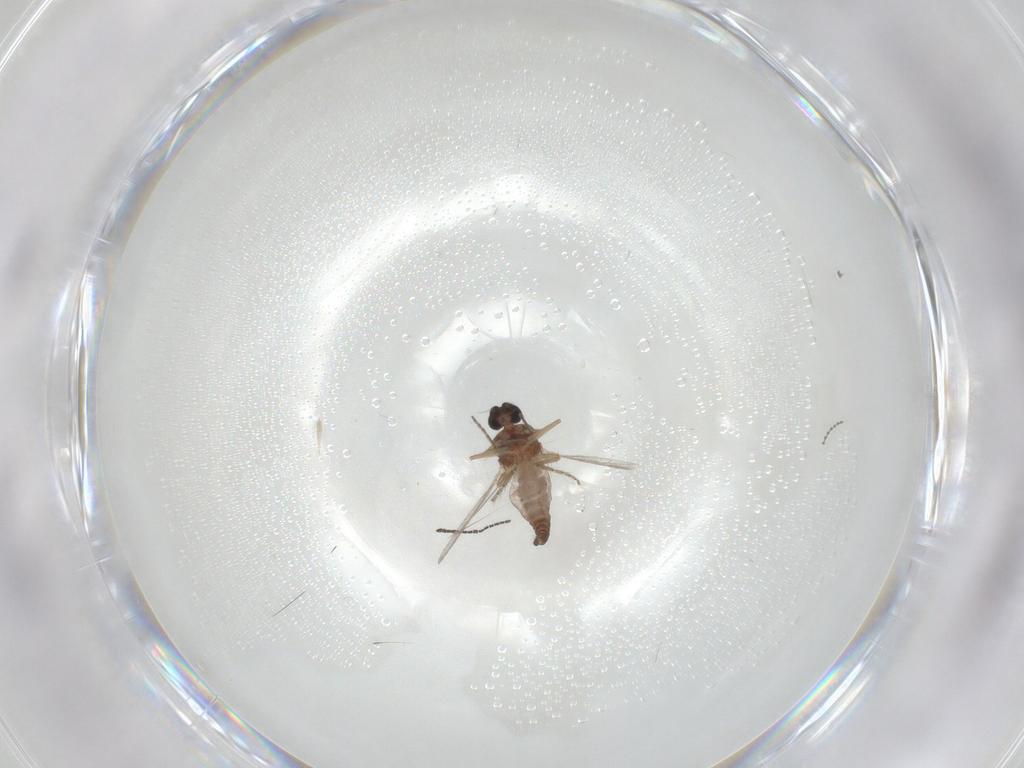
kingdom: Animalia
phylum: Arthropoda
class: Insecta
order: Diptera
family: Ceratopogonidae
